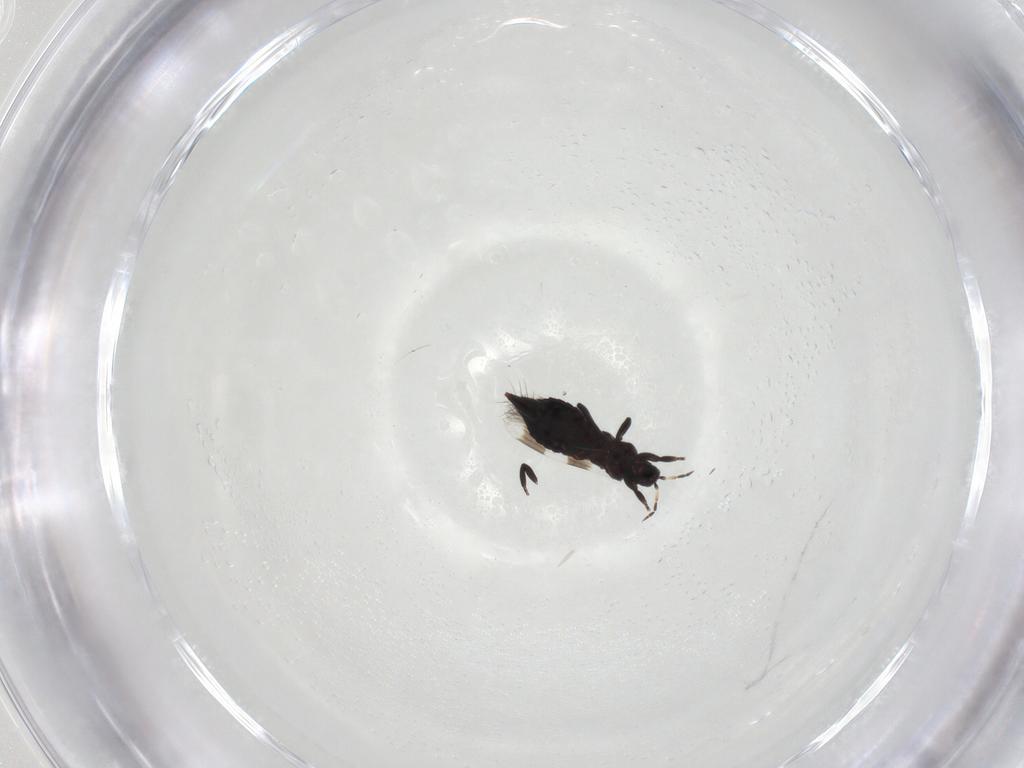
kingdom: Animalia
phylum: Arthropoda
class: Insecta
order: Thysanoptera
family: Aeolothripidae
